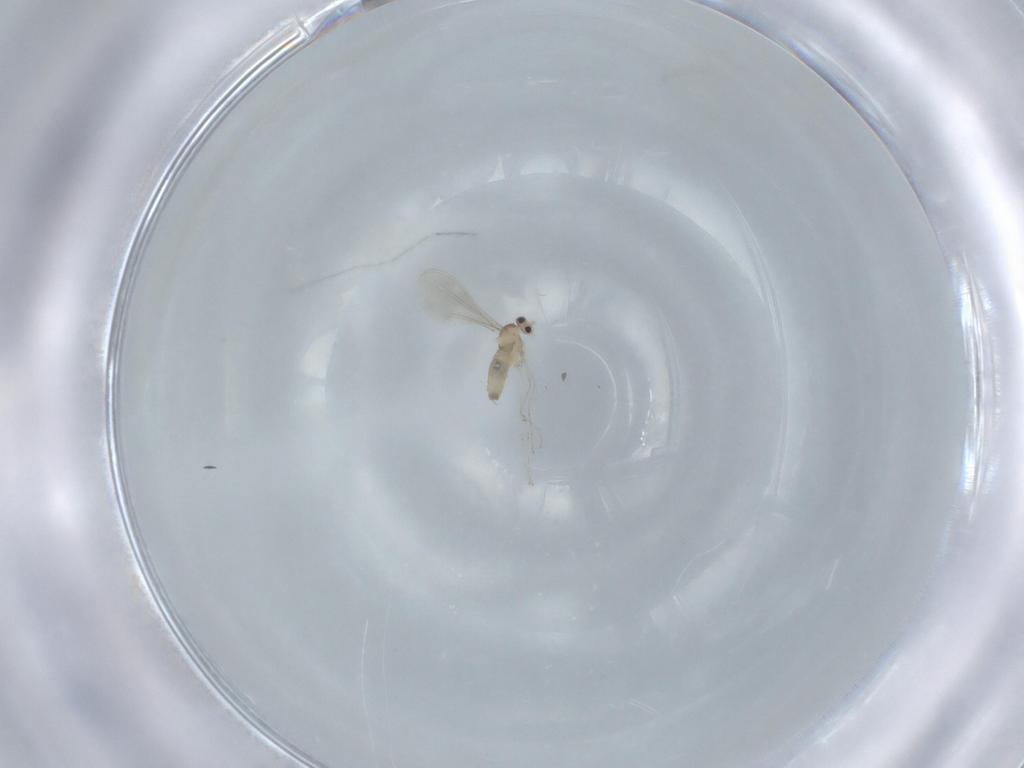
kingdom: Animalia
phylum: Arthropoda
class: Insecta
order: Diptera
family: Cecidomyiidae
